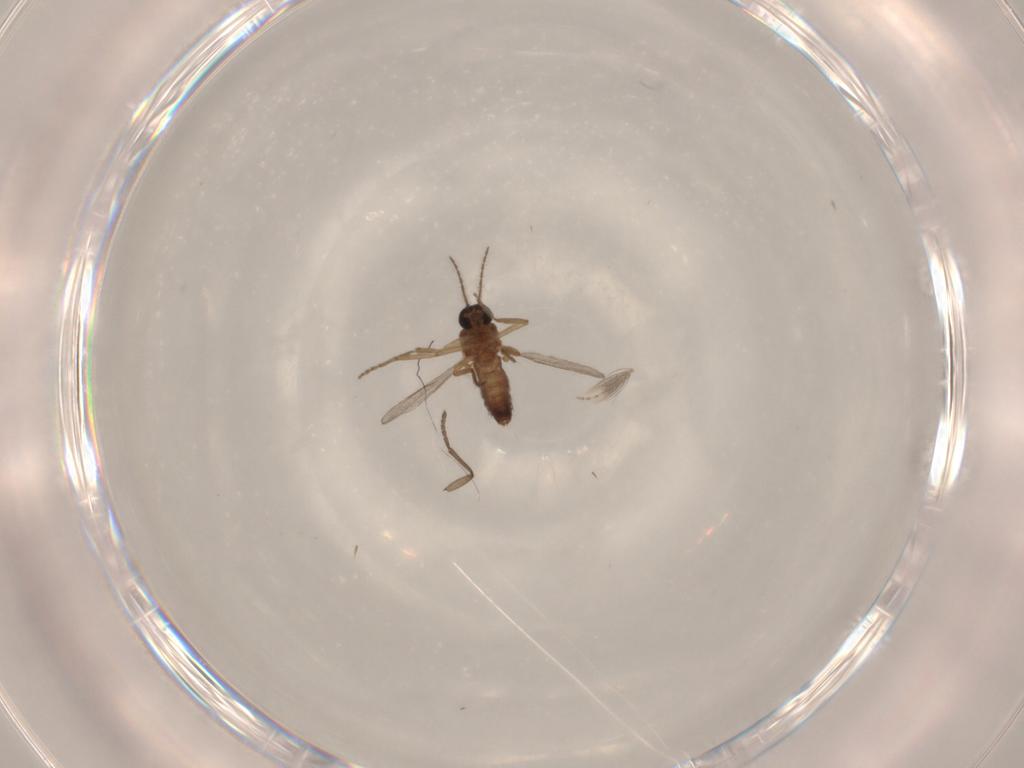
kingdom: Animalia
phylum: Arthropoda
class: Insecta
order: Diptera
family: Ceratopogonidae
